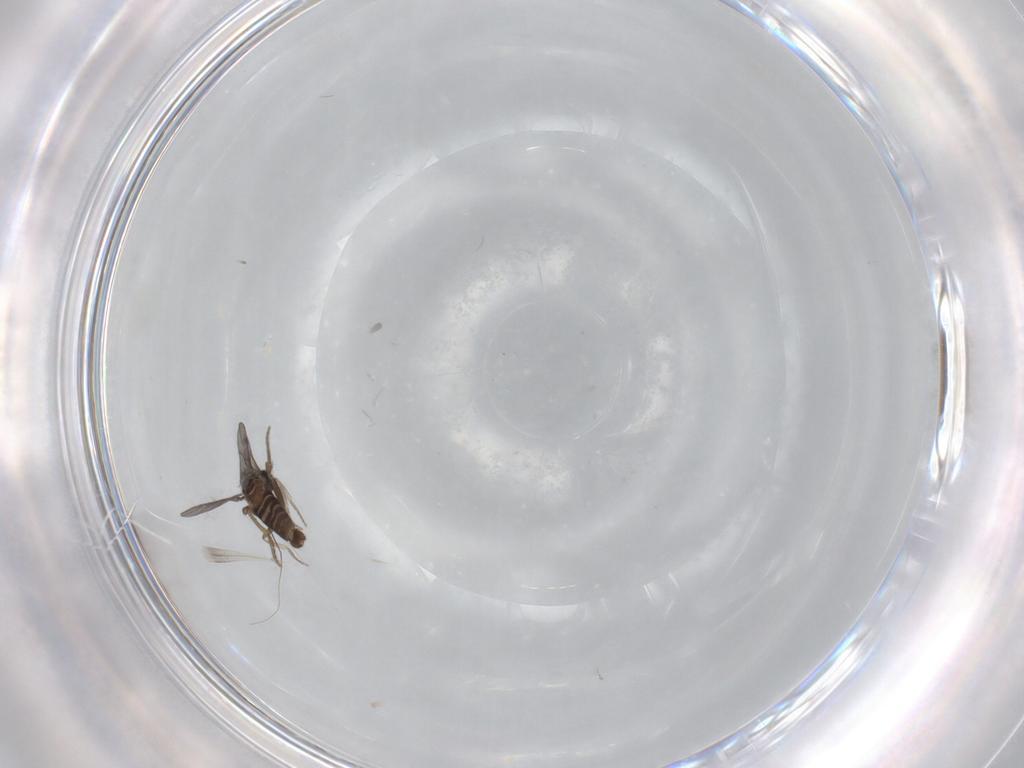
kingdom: Animalia
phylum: Arthropoda
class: Insecta
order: Diptera
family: Chironomidae
